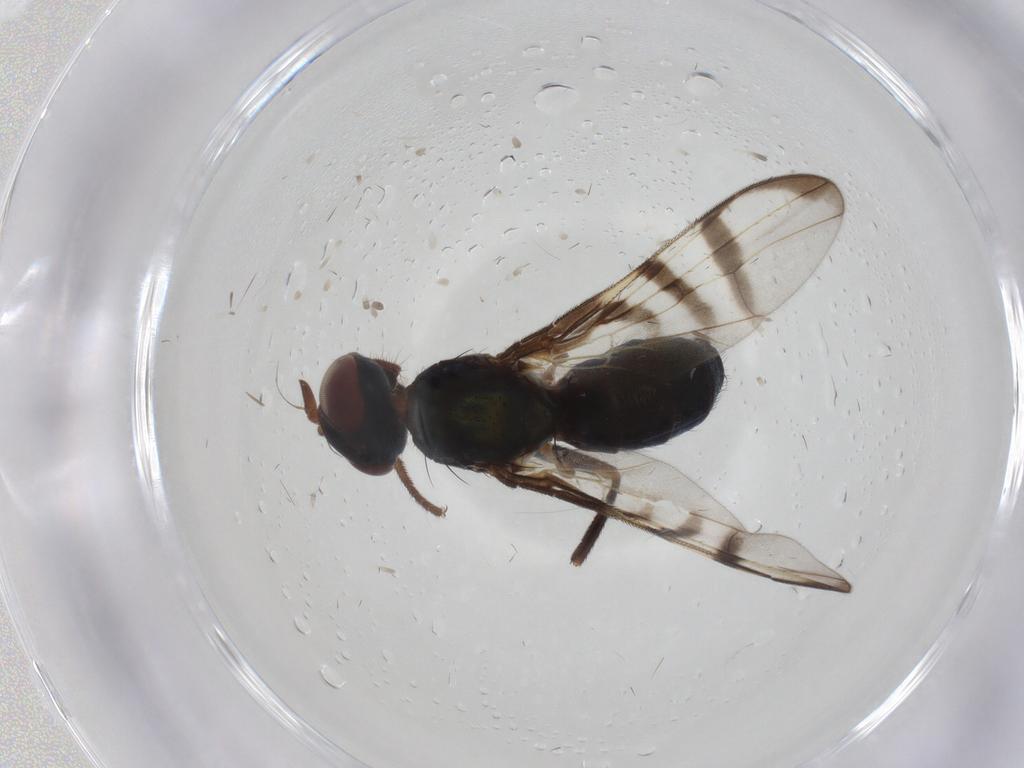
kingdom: Animalia
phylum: Arthropoda
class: Insecta
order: Diptera
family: Platystomatidae
